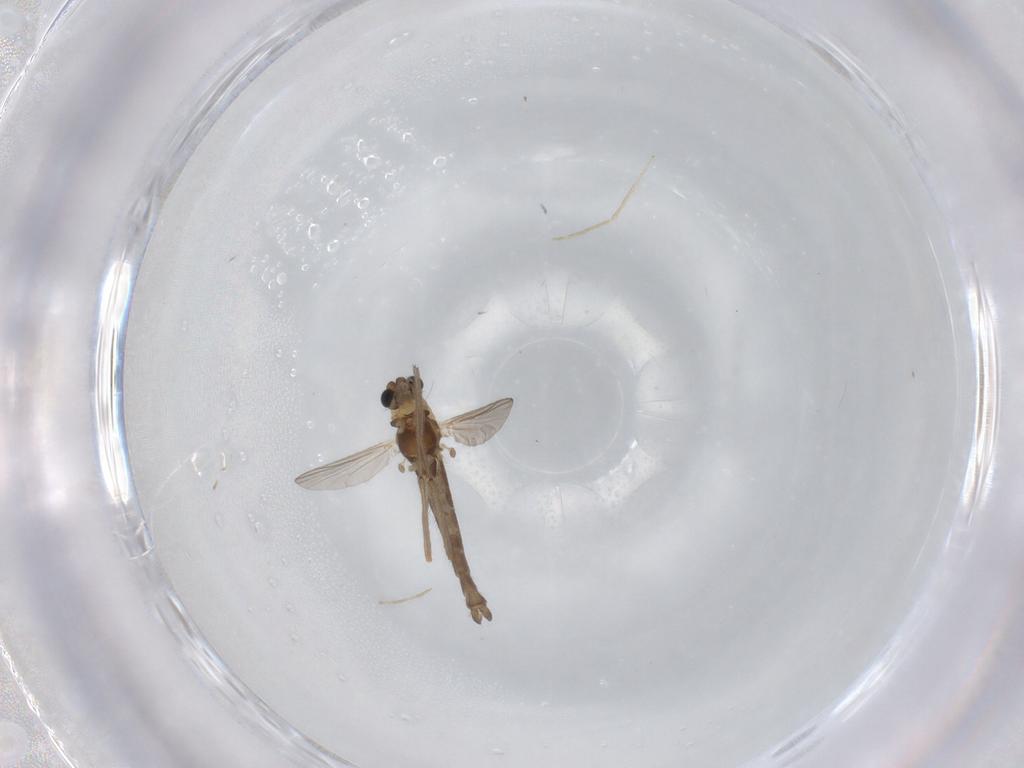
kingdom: Animalia
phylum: Arthropoda
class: Insecta
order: Diptera
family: Chironomidae
